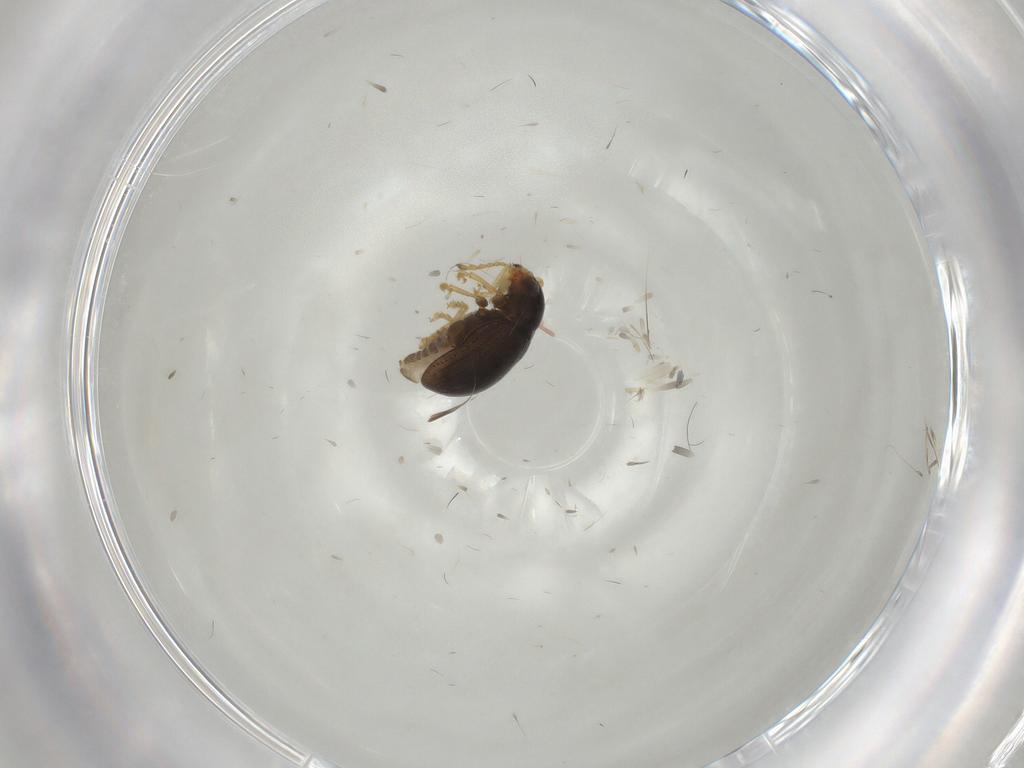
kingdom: Animalia
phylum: Arthropoda
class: Insecta
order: Coleoptera
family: Chrysomelidae
